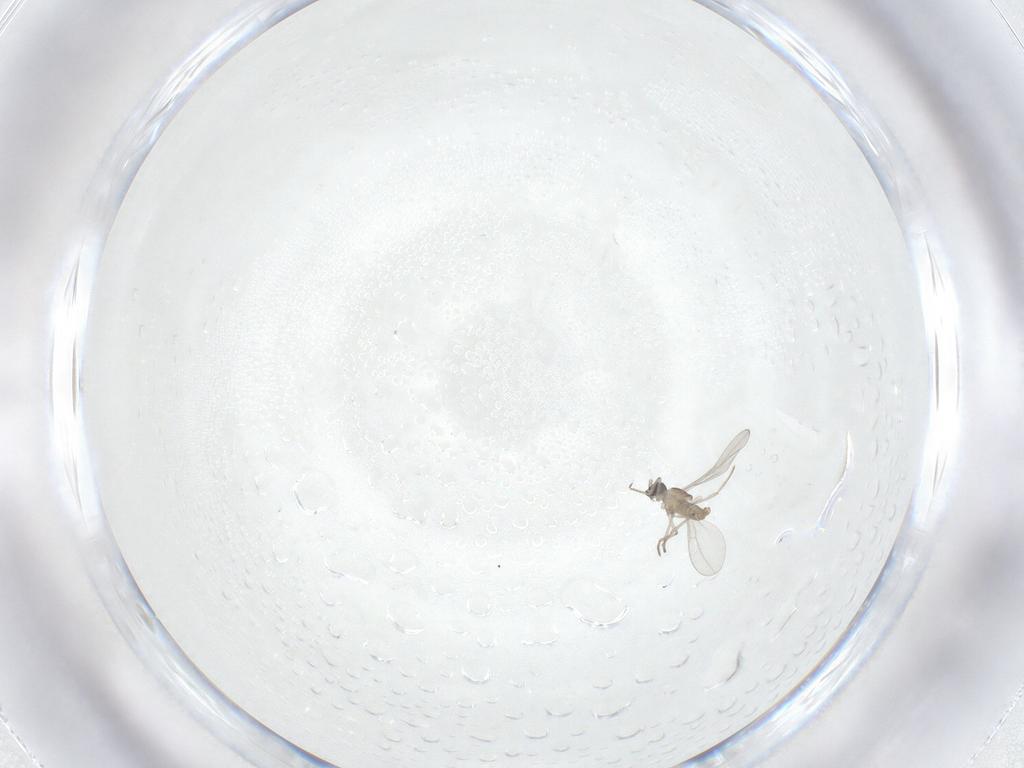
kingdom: Animalia
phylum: Arthropoda
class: Insecta
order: Diptera
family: Cecidomyiidae
